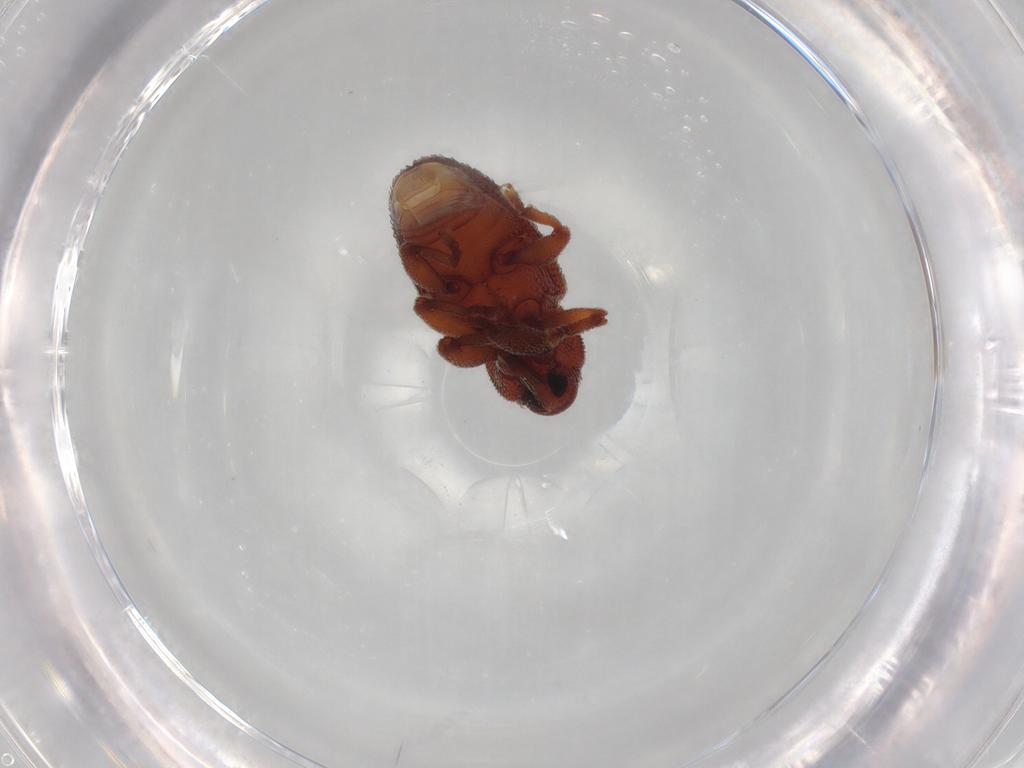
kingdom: Animalia
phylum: Arthropoda
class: Insecta
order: Coleoptera
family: Curculionidae
